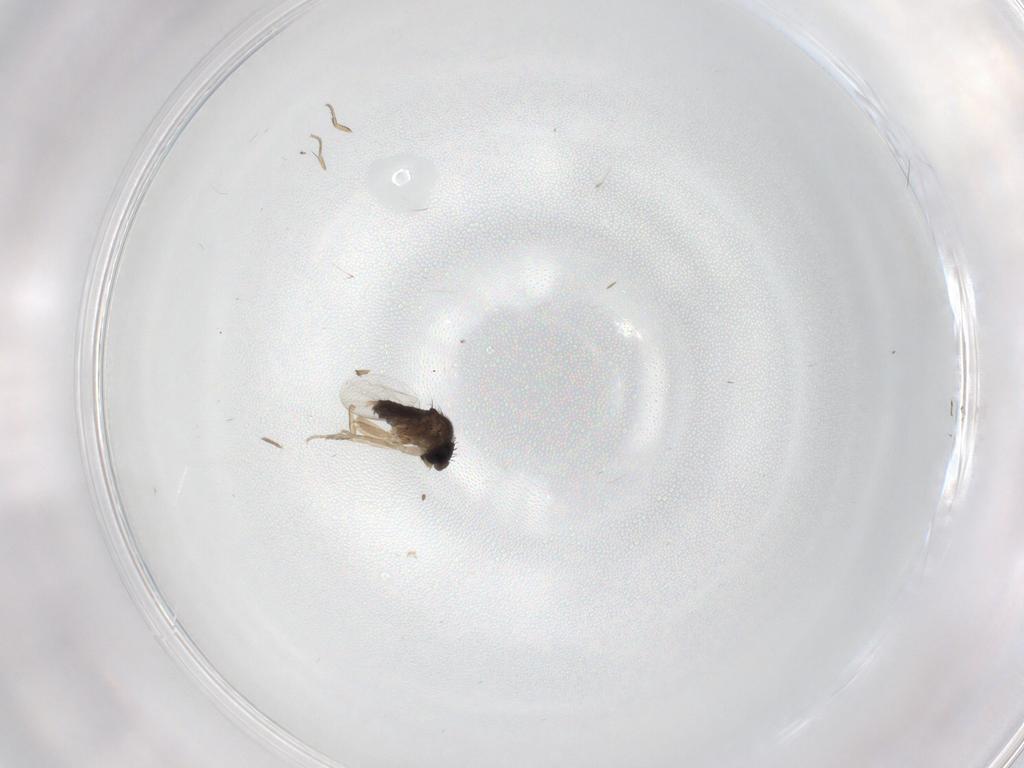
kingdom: Animalia
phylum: Arthropoda
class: Insecta
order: Diptera
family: Phoridae
